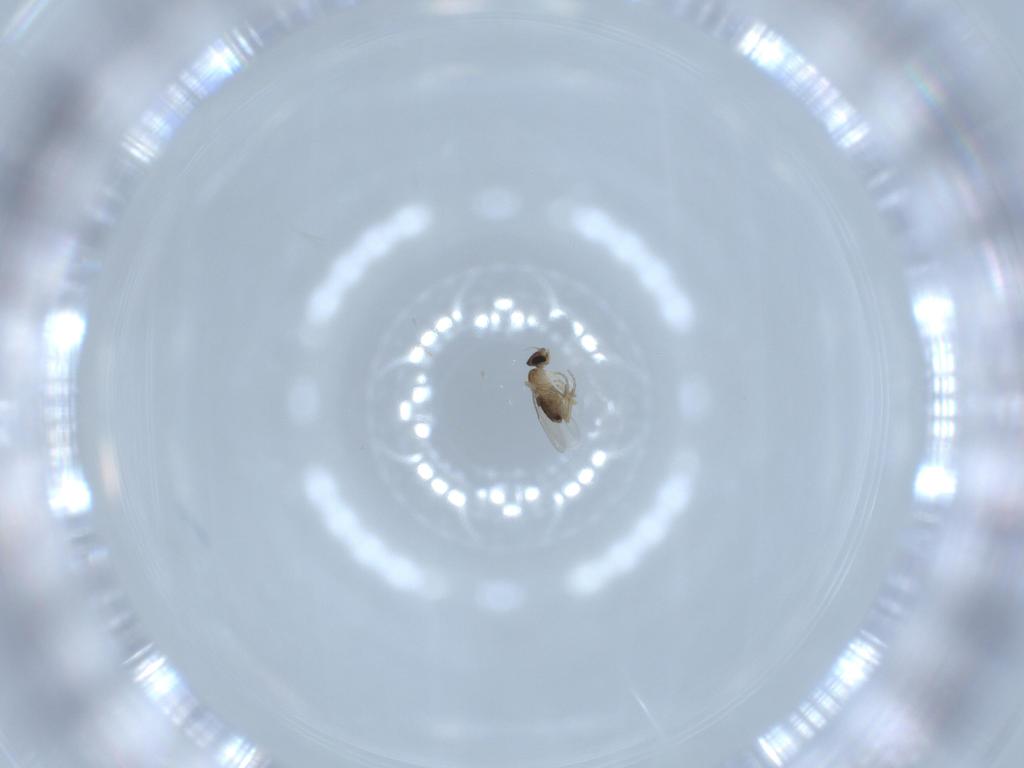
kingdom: Animalia
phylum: Arthropoda
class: Insecta
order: Diptera
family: Phoridae
